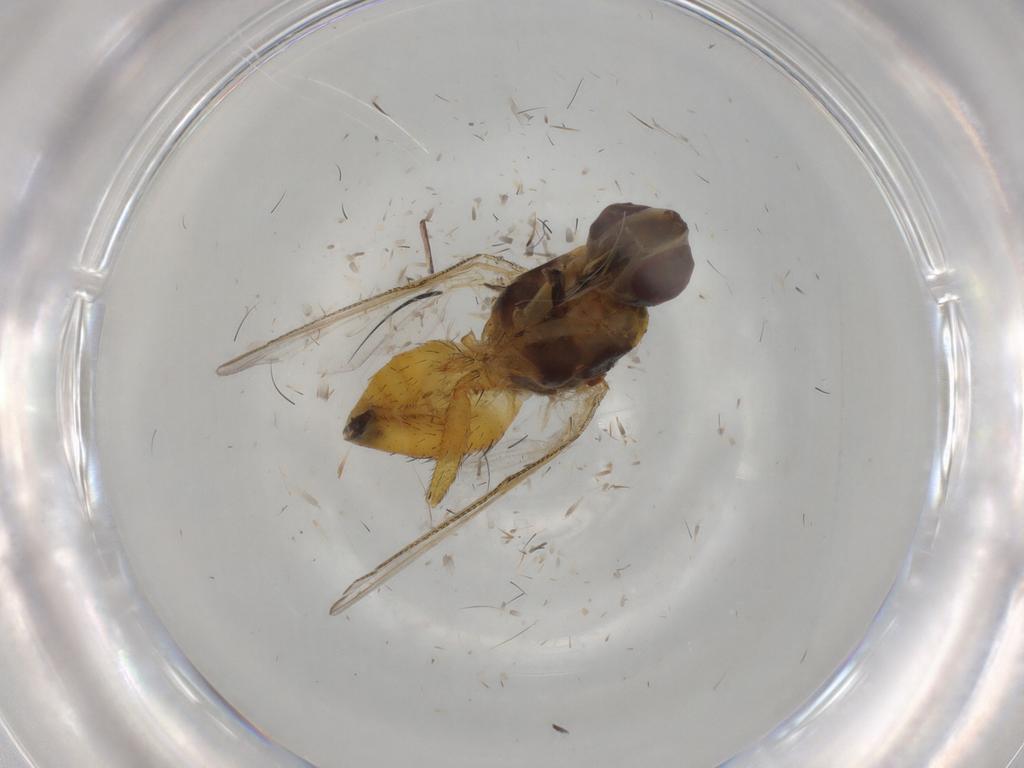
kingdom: Animalia
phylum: Arthropoda
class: Insecta
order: Diptera
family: Muscidae
